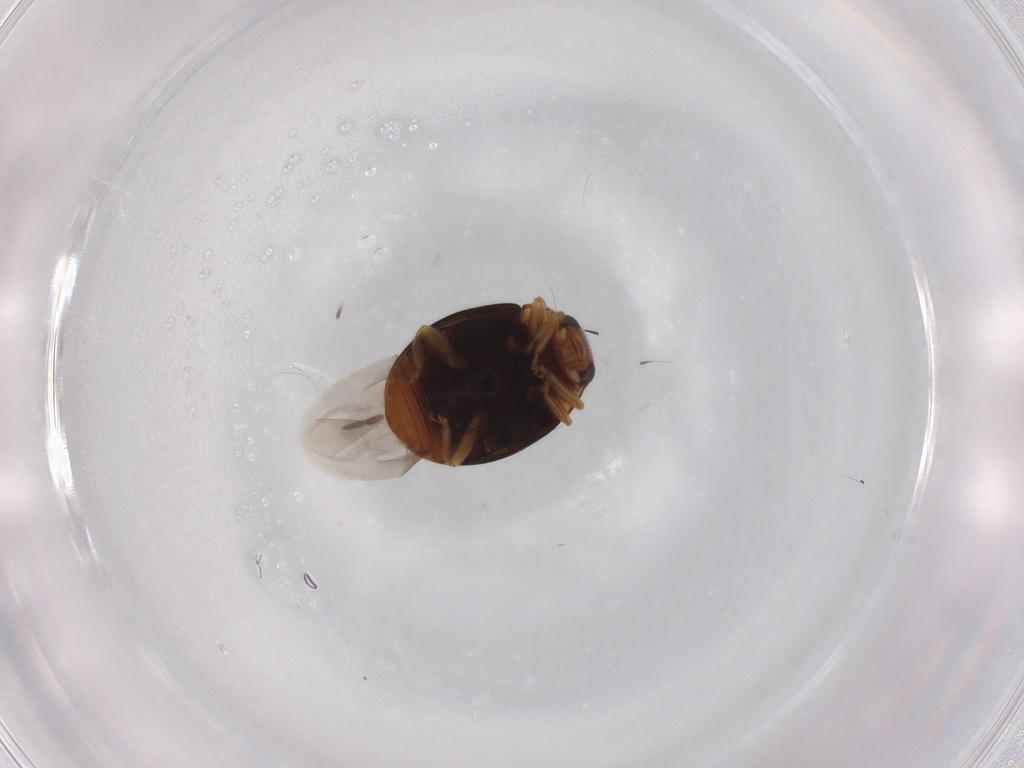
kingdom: Animalia
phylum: Arthropoda
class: Insecta
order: Coleoptera
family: Coccinellidae
